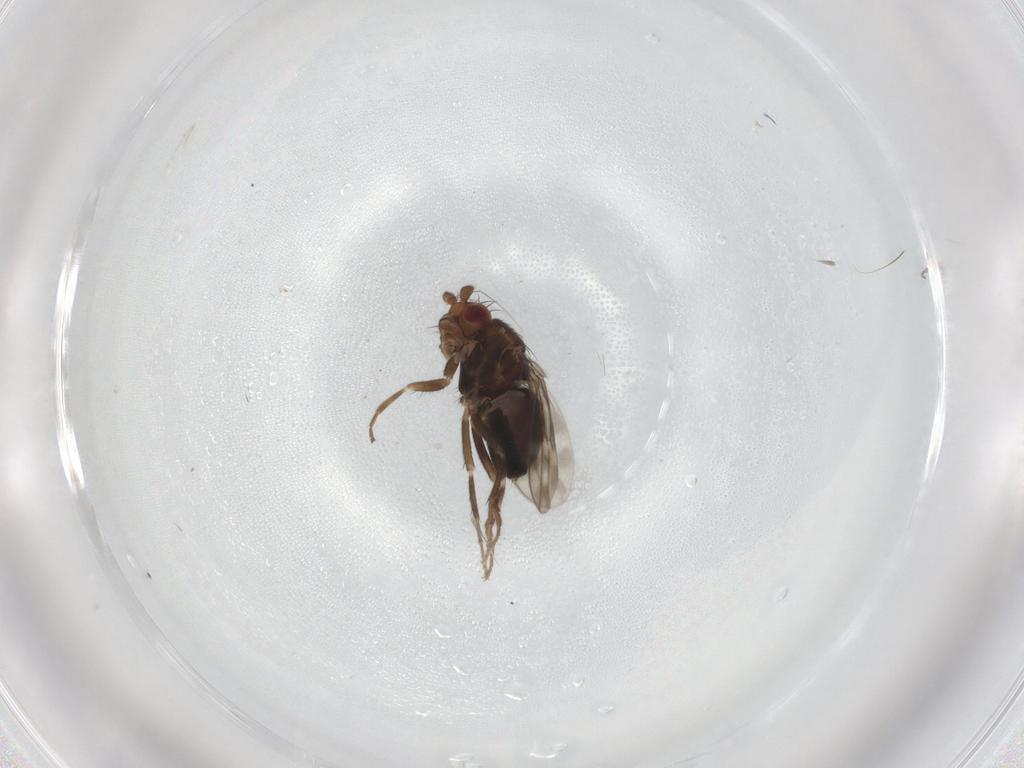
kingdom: Animalia
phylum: Arthropoda
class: Insecta
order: Diptera
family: Sphaeroceridae
